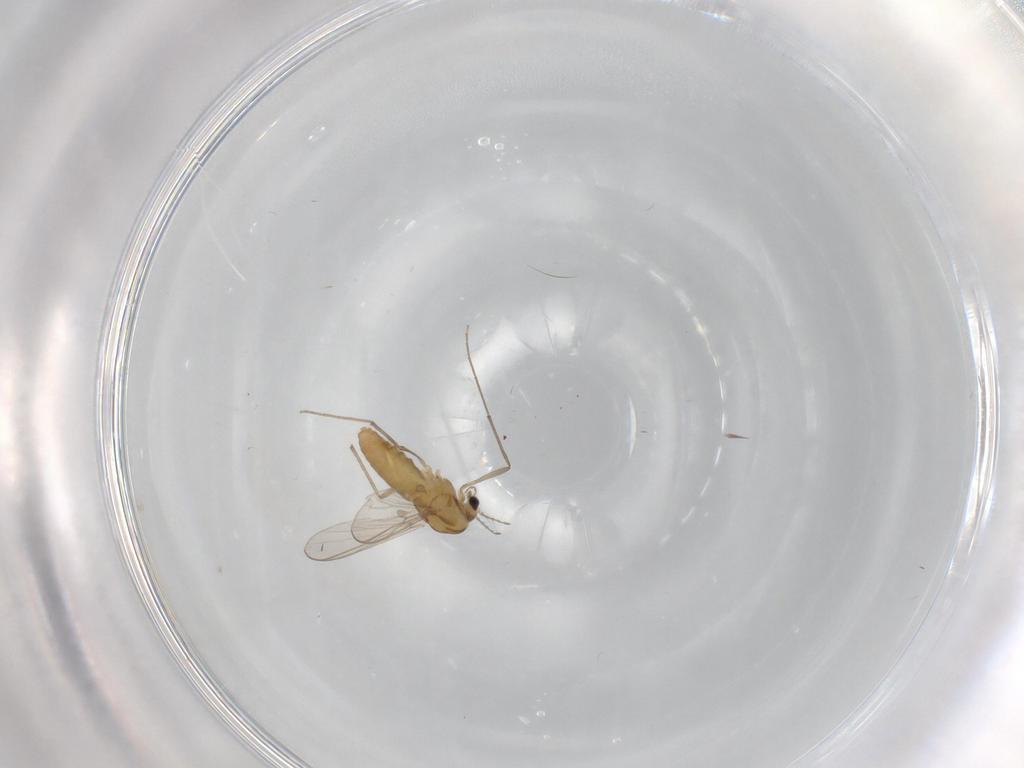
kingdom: Animalia
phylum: Arthropoda
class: Insecta
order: Diptera
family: Chironomidae
